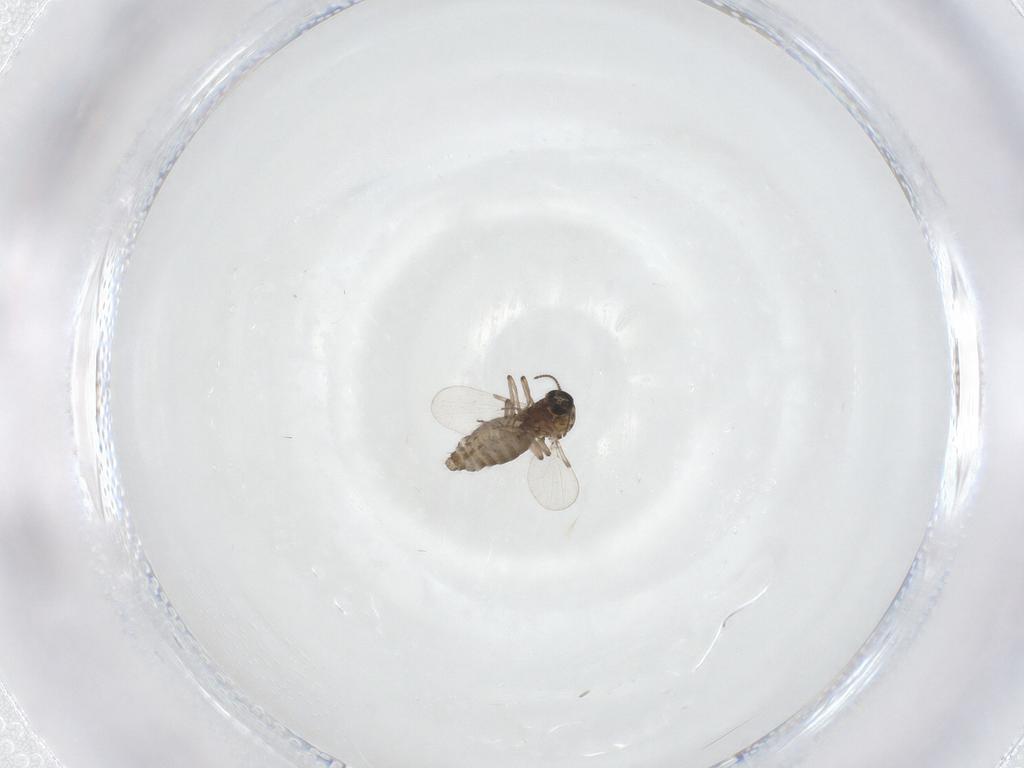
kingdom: Animalia
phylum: Arthropoda
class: Insecta
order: Diptera
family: Ceratopogonidae
